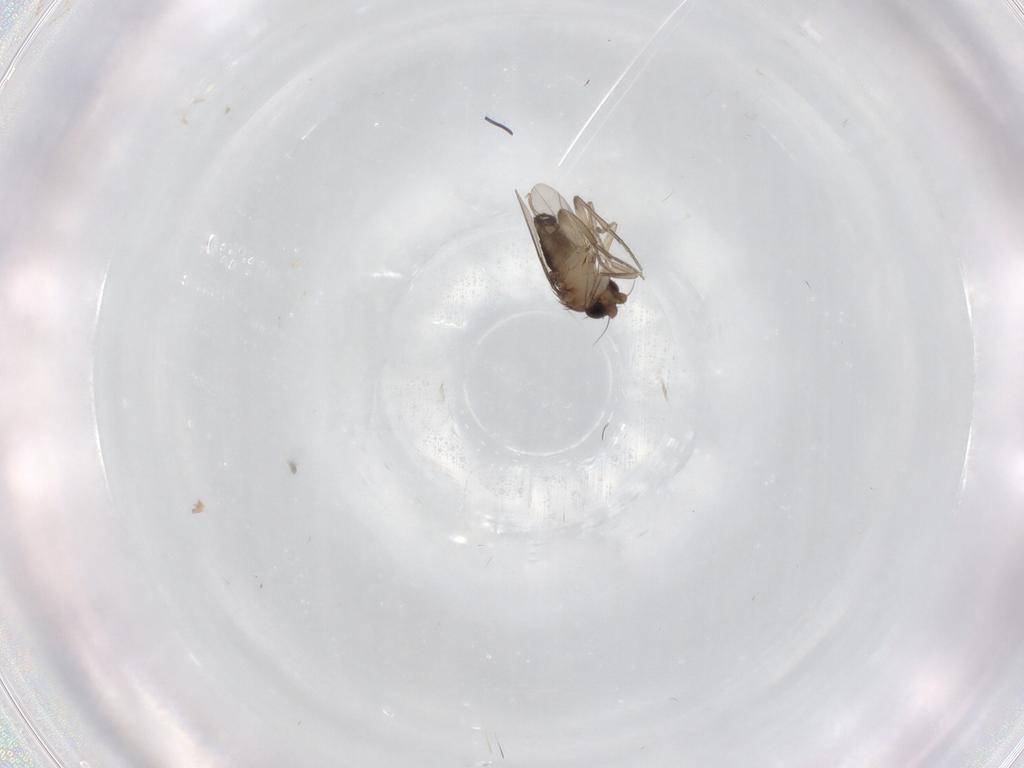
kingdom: Animalia
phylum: Arthropoda
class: Insecta
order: Diptera
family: Phoridae
